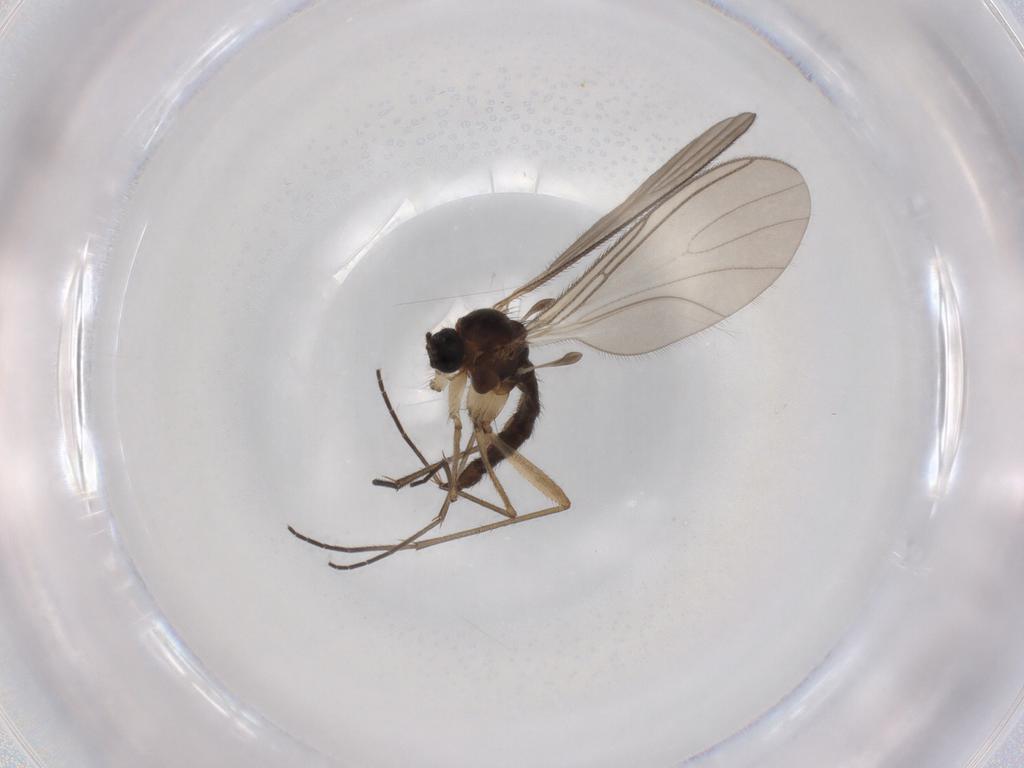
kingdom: Animalia
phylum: Arthropoda
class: Insecta
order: Diptera
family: Sciaridae
